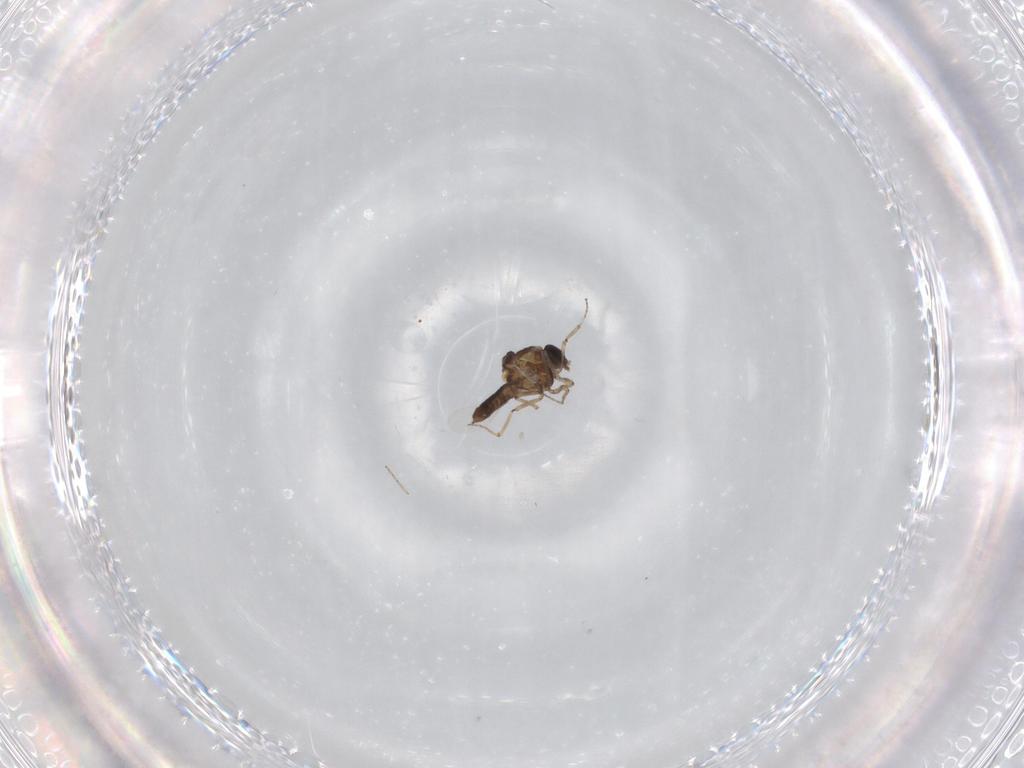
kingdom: Animalia
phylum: Arthropoda
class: Insecta
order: Diptera
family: Ceratopogonidae
